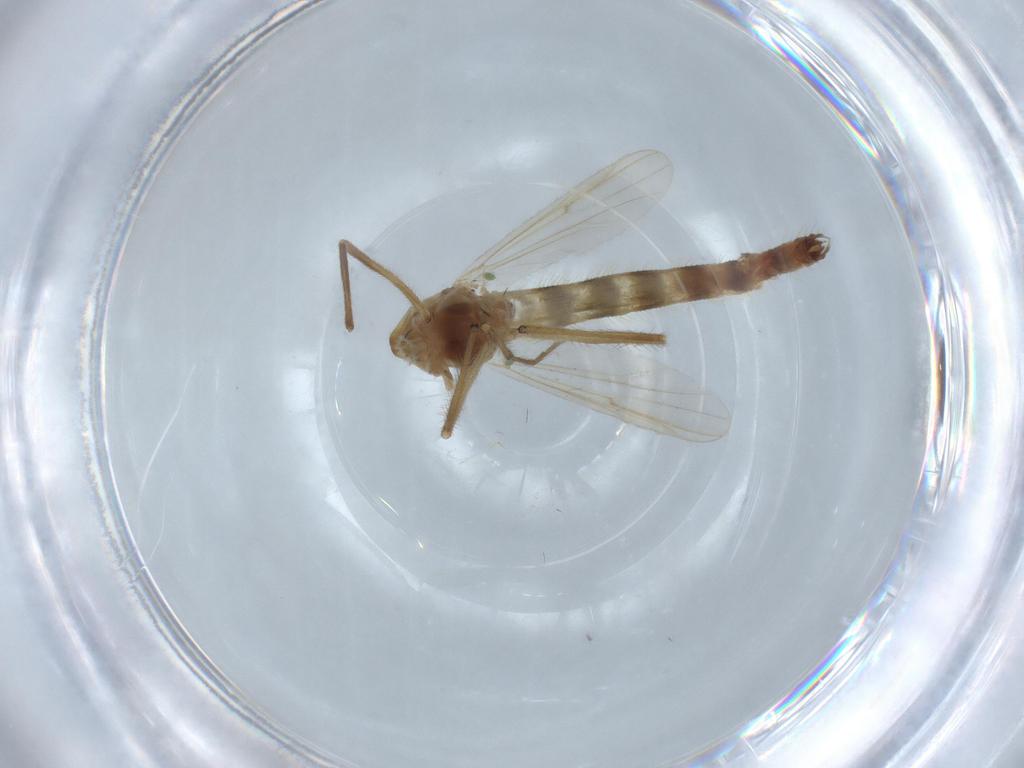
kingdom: Animalia
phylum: Arthropoda
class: Insecta
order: Diptera
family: Chironomidae
